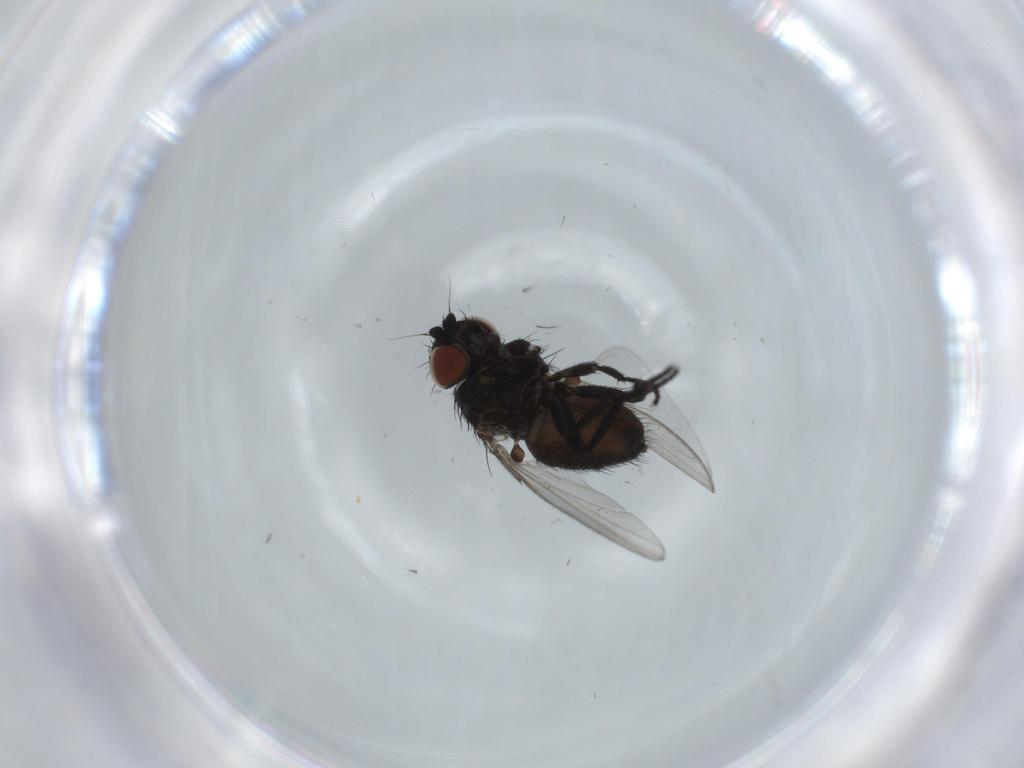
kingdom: Animalia
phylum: Arthropoda
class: Insecta
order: Diptera
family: Milichiidae
